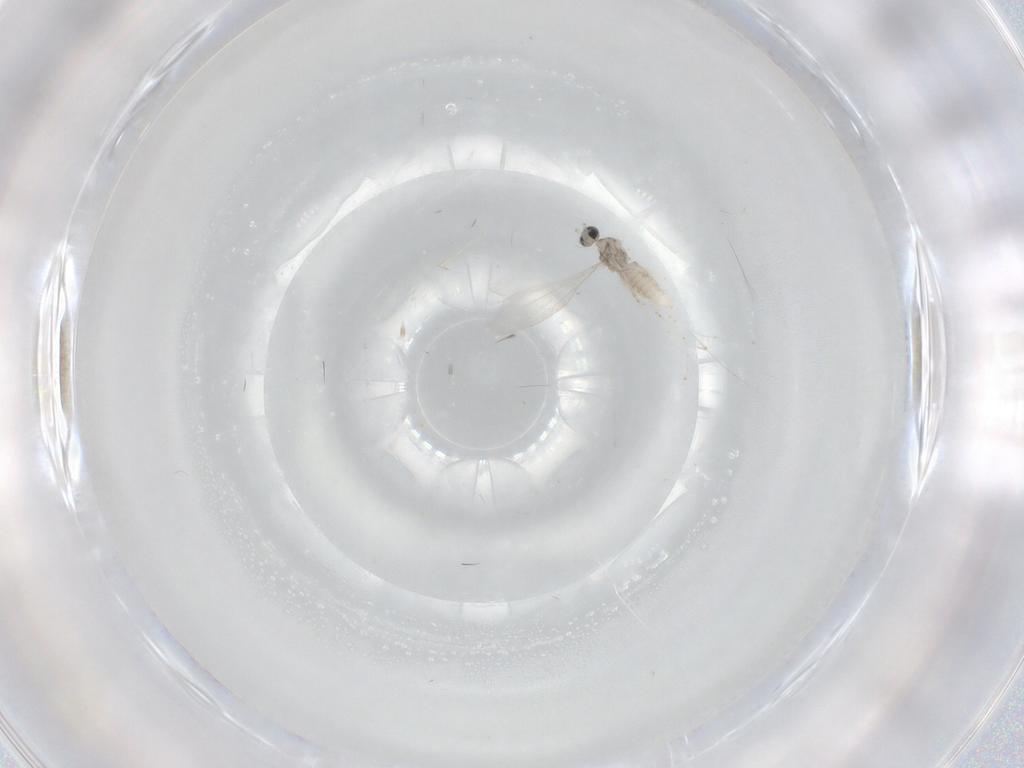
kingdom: Animalia
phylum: Arthropoda
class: Insecta
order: Diptera
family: Cecidomyiidae
